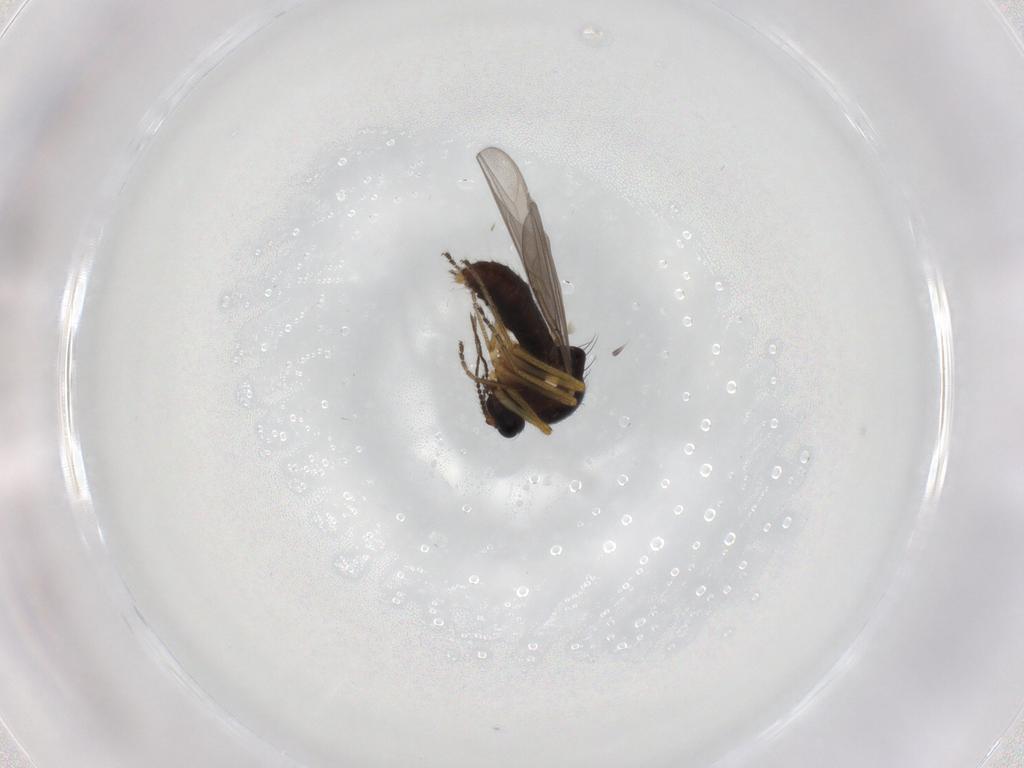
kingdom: Animalia
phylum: Arthropoda
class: Insecta
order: Diptera
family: Ceratopogonidae
